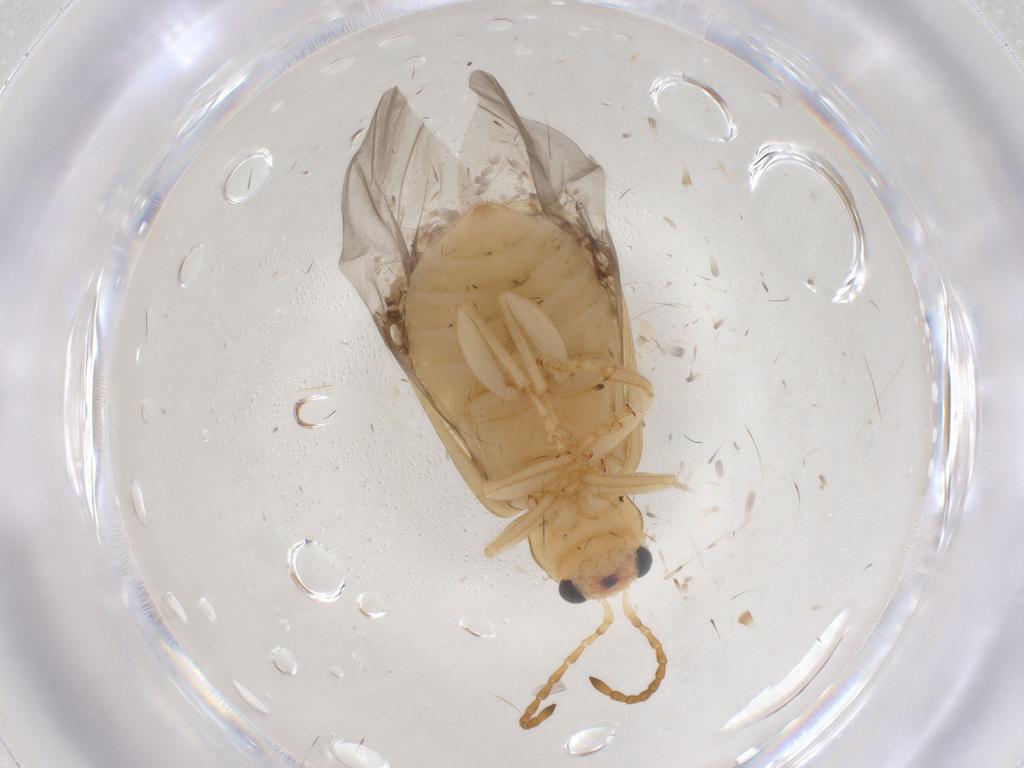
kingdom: Animalia
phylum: Arthropoda
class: Insecta
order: Coleoptera
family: Chrysomelidae
